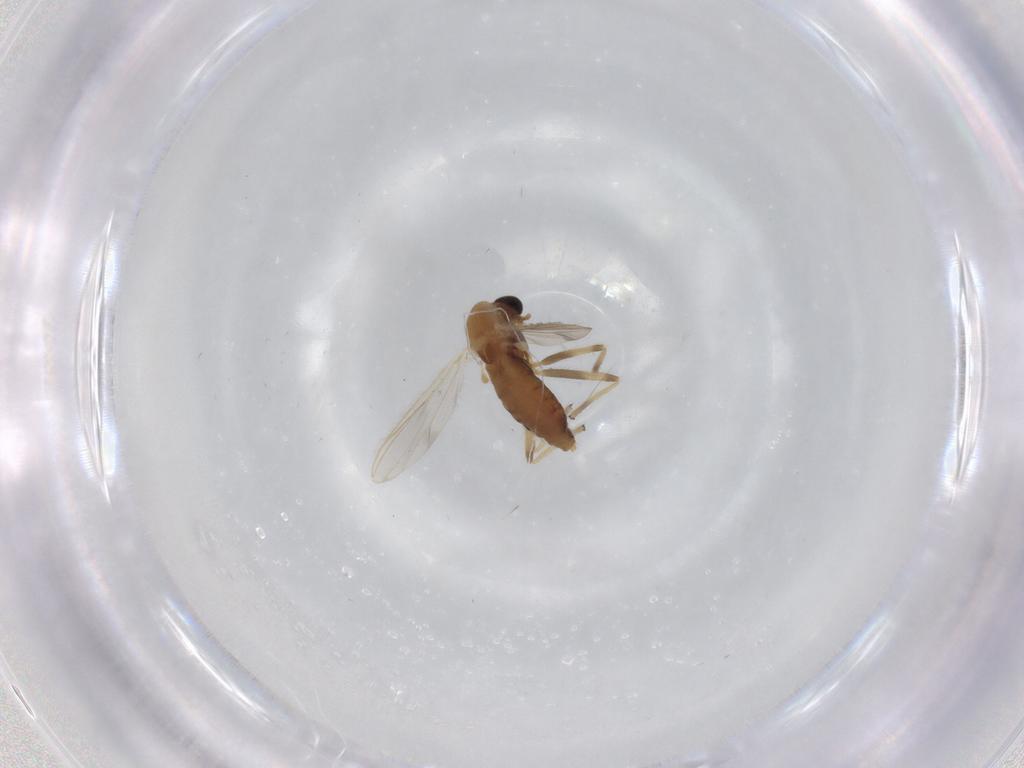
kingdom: Animalia
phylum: Arthropoda
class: Insecta
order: Diptera
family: Chironomidae
